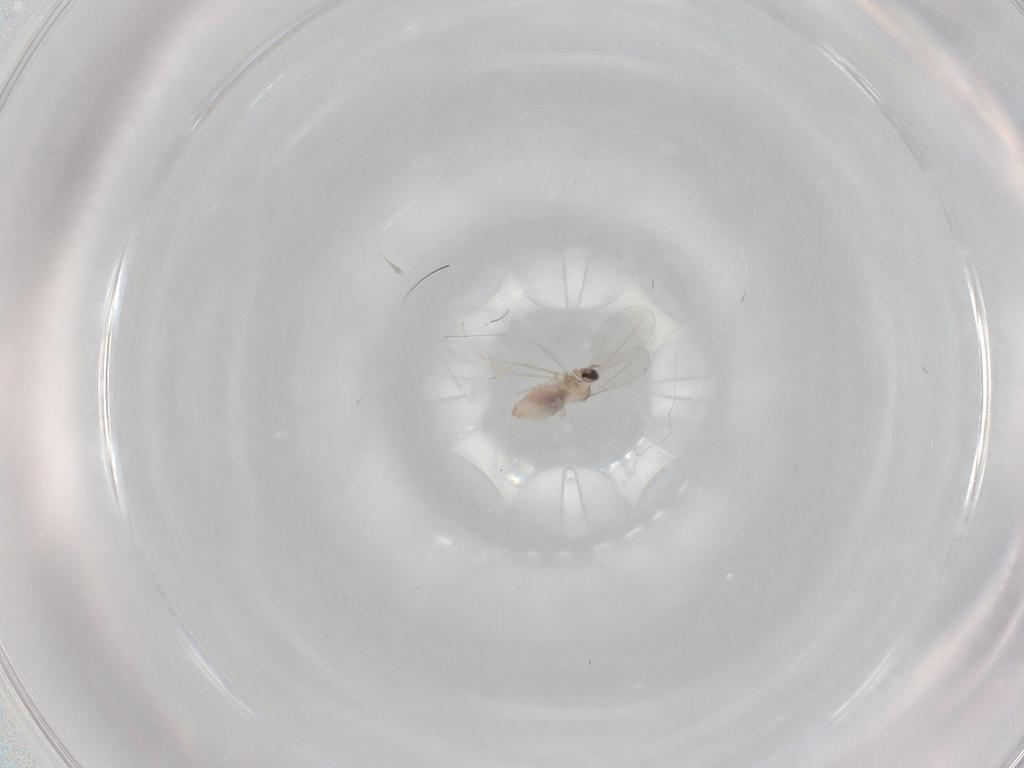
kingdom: Animalia
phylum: Arthropoda
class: Insecta
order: Diptera
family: Cecidomyiidae
